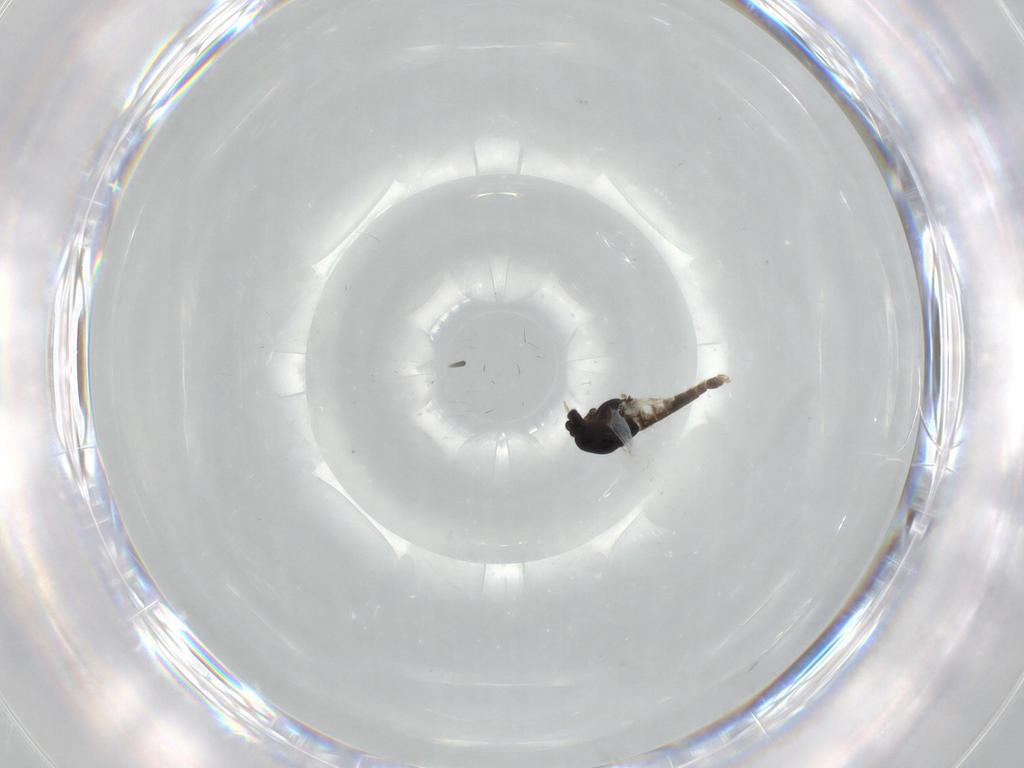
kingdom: Animalia
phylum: Arthropoda
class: Insecta
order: Diptera
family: Chironomidae
